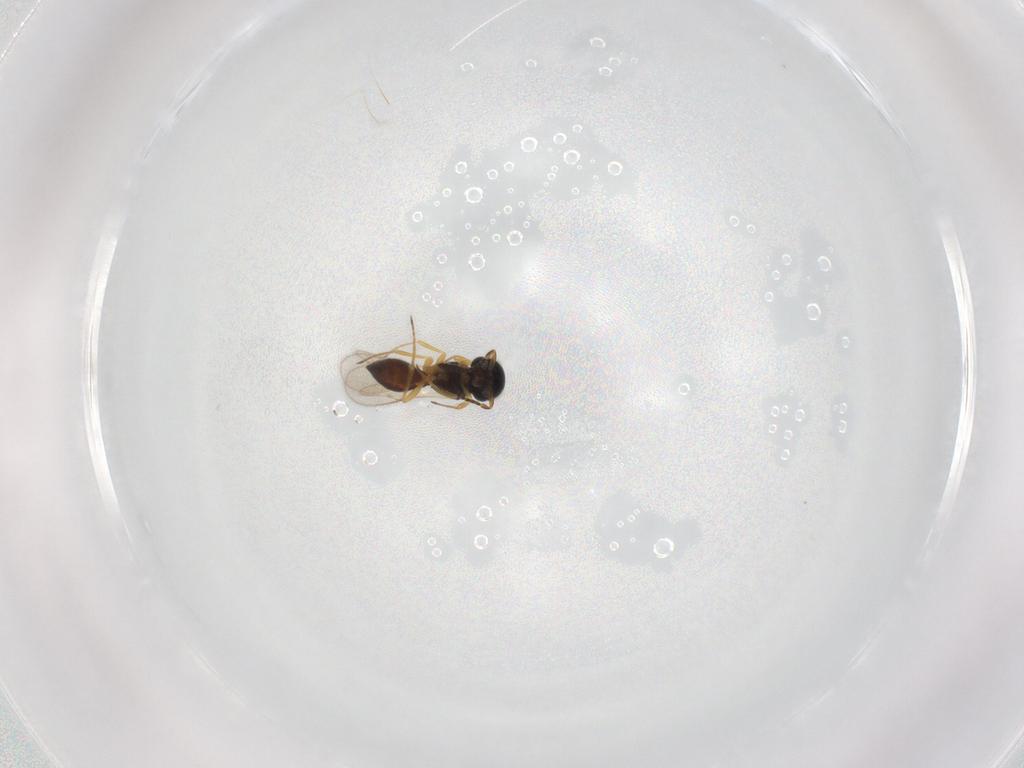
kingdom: Animalia
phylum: Arthropoda
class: Insecta
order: Hymenoptera
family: Scelionidae
